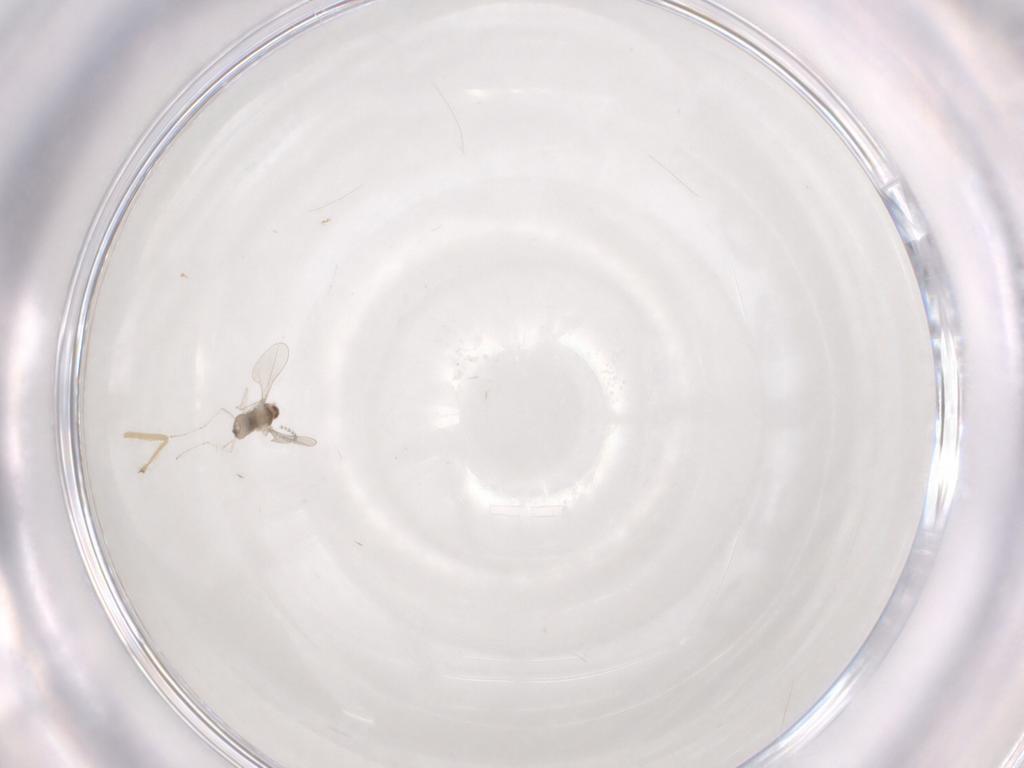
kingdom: Animalia
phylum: Arthropoda
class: Insecta
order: Diptera
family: Chironomidae
